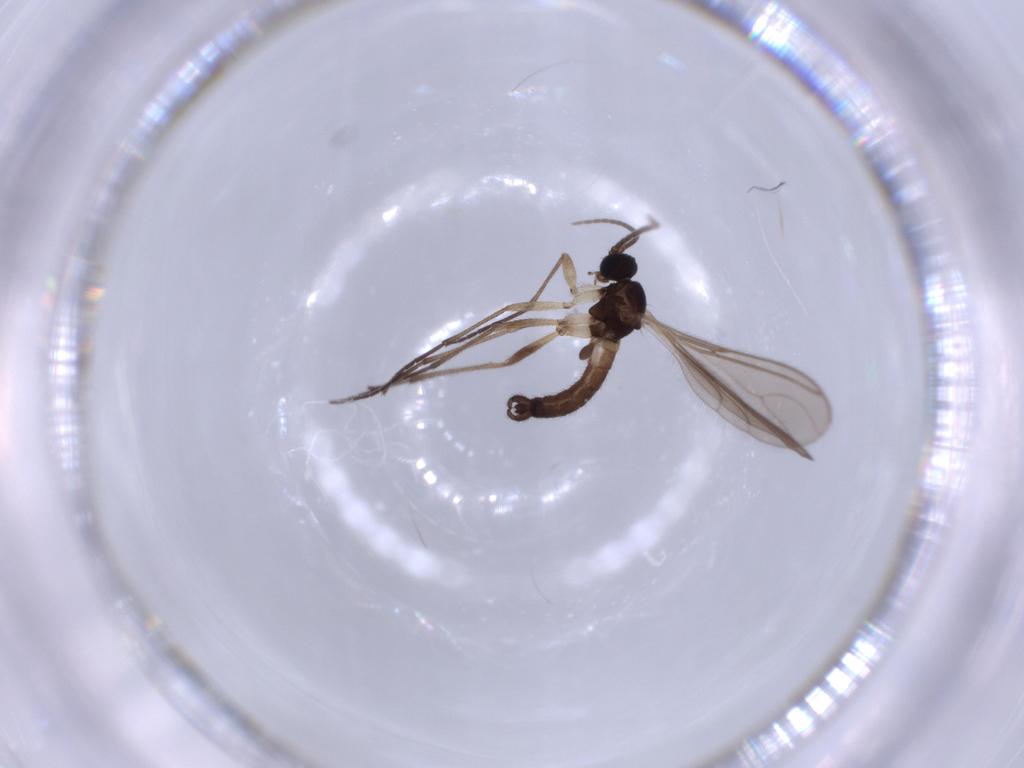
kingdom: Animalia
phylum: Arthropoda
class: Insecta
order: Diptera
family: Sciaridae
